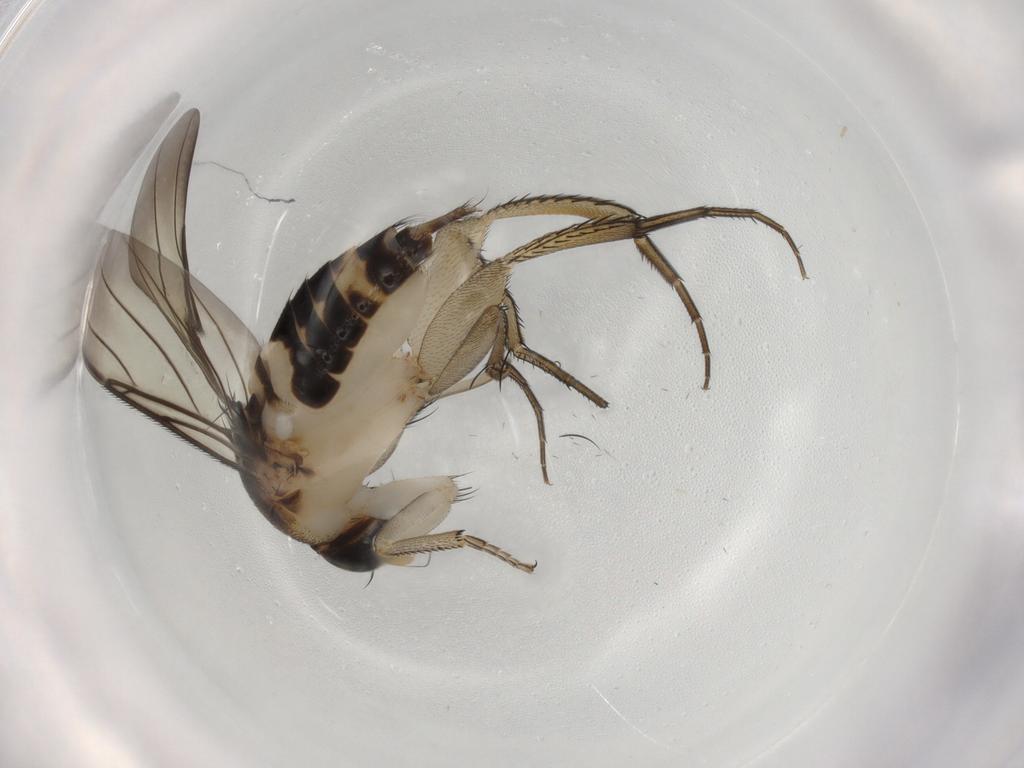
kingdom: Animalia
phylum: Arthropoda
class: Insecta
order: Diptera
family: Phoridae
